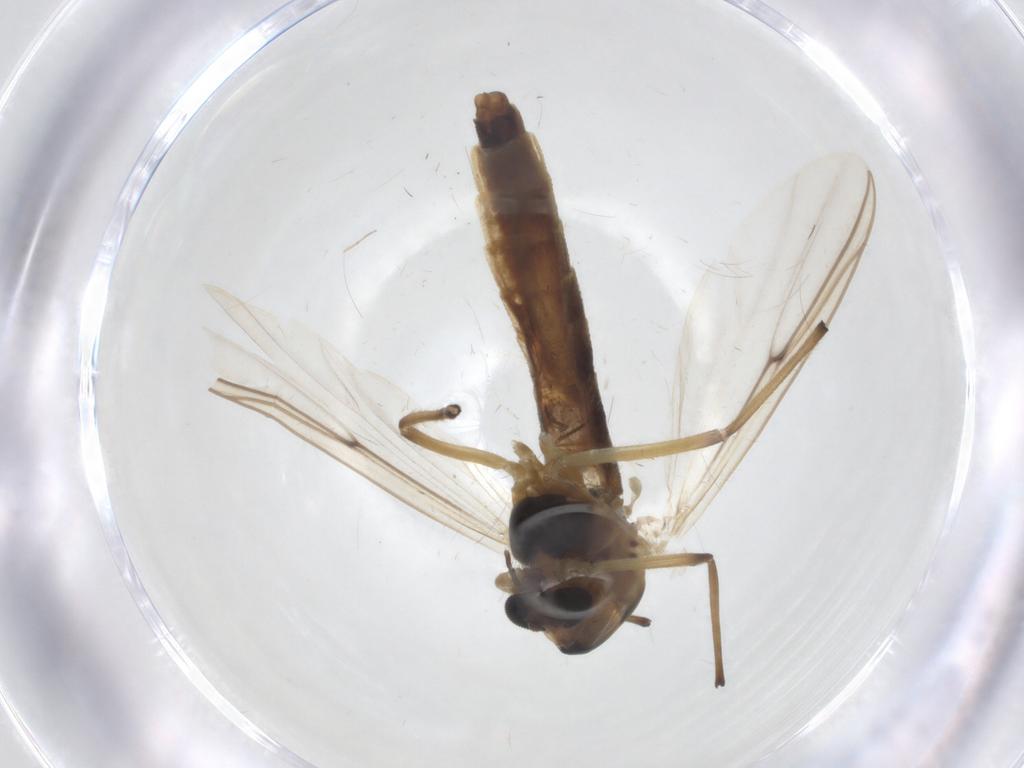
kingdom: Animalia
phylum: Arthropoda
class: Insecta
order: Diptera
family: Chironomidae
